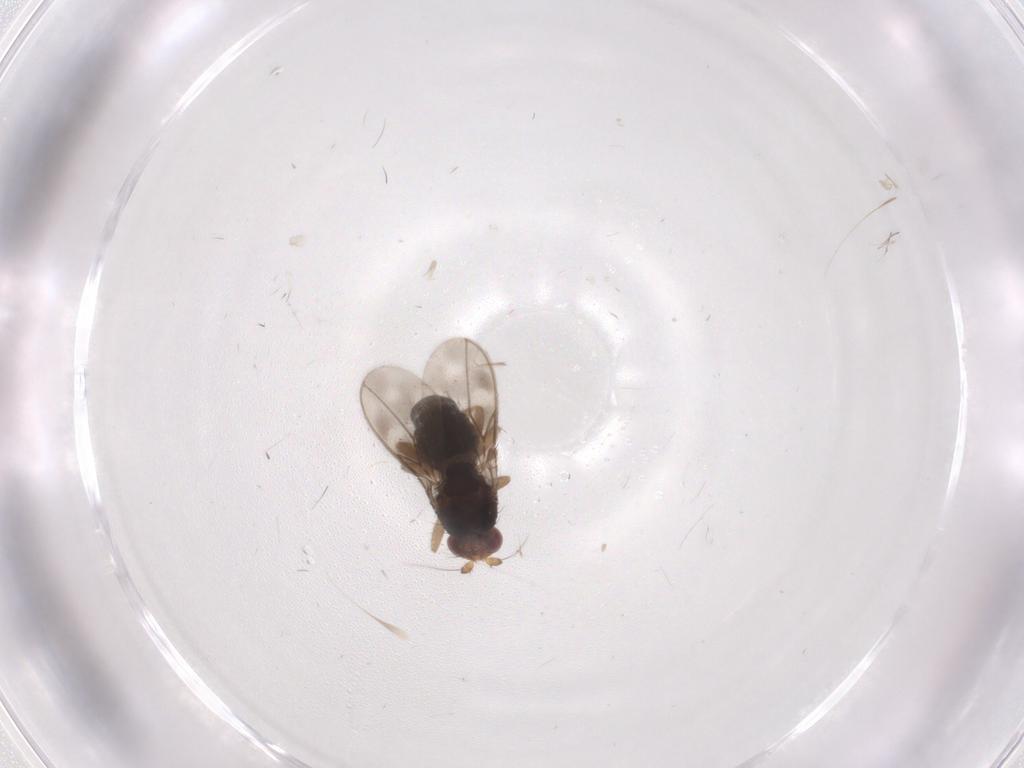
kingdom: Animalia
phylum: Arthropoda
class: Insecta
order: Diptera
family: Sphaeroceridae
